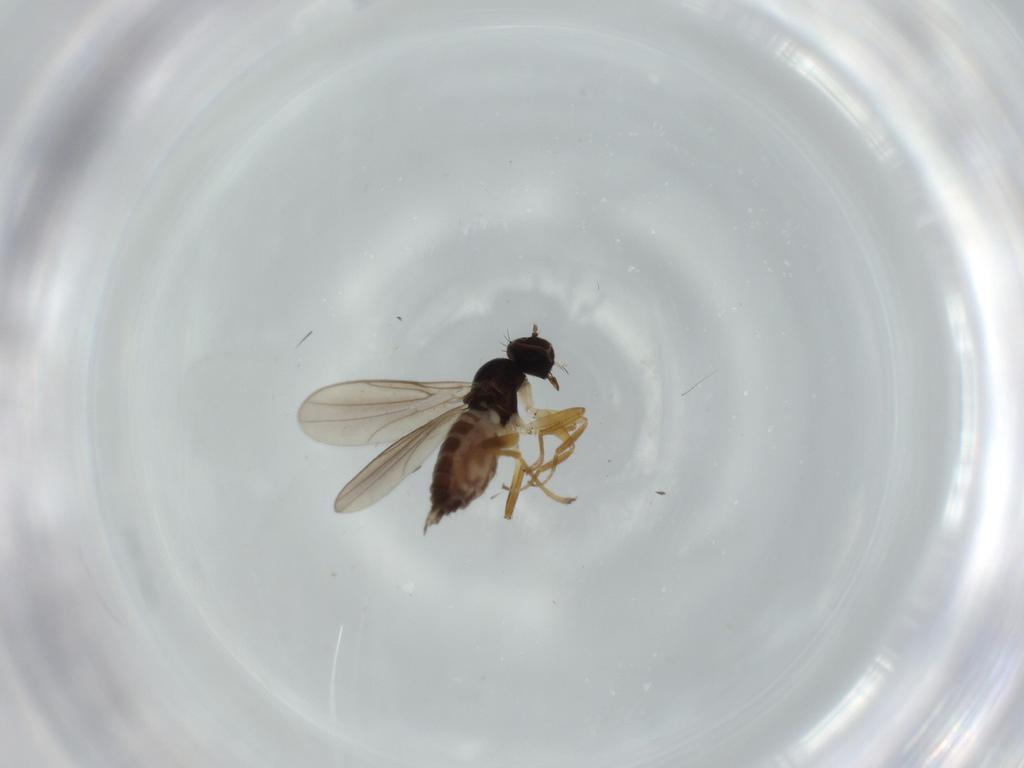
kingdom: Animalia
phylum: Arthropoda
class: Insecta
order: Diptera
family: Hybotidae
